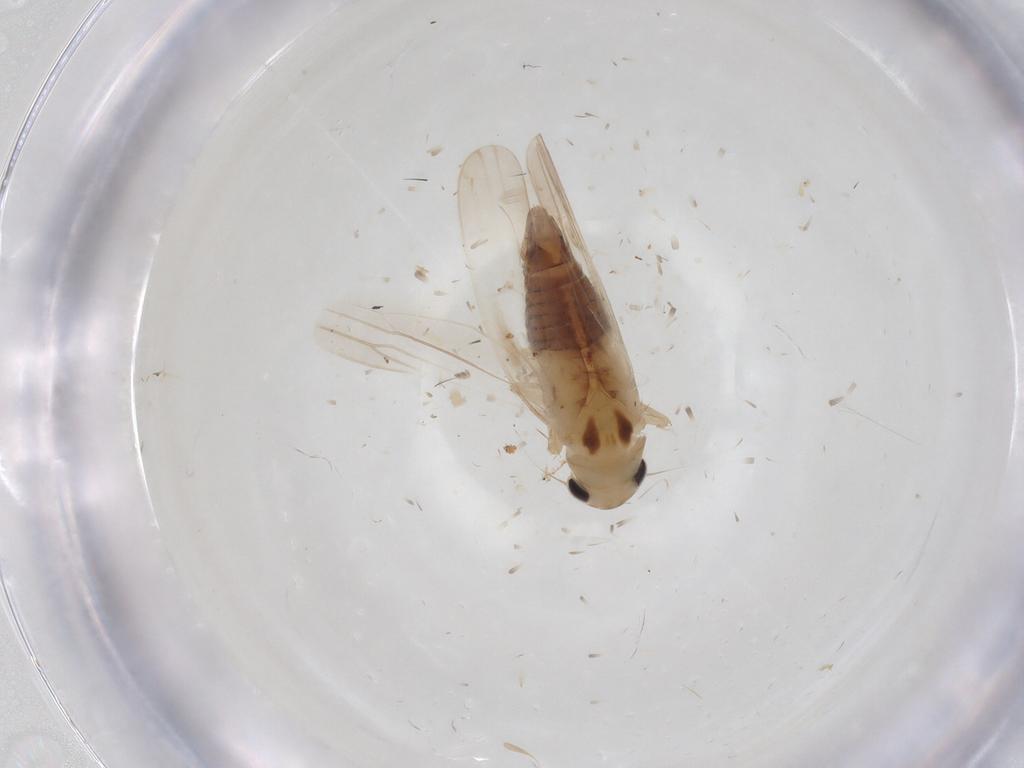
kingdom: Animalia
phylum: Arthropoda
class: Insecta
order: Hemiptera
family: Cicadellidae
